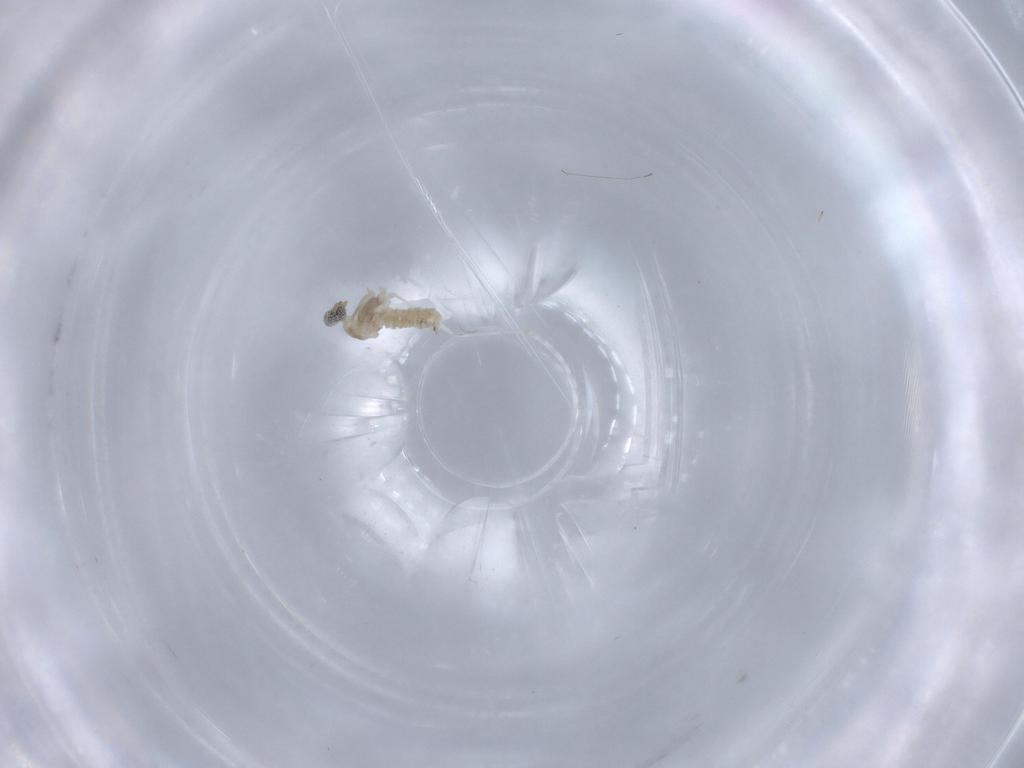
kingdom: Animalia
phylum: Arthropoda
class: Insecta
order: Diptera
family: Cecidomyiidae
